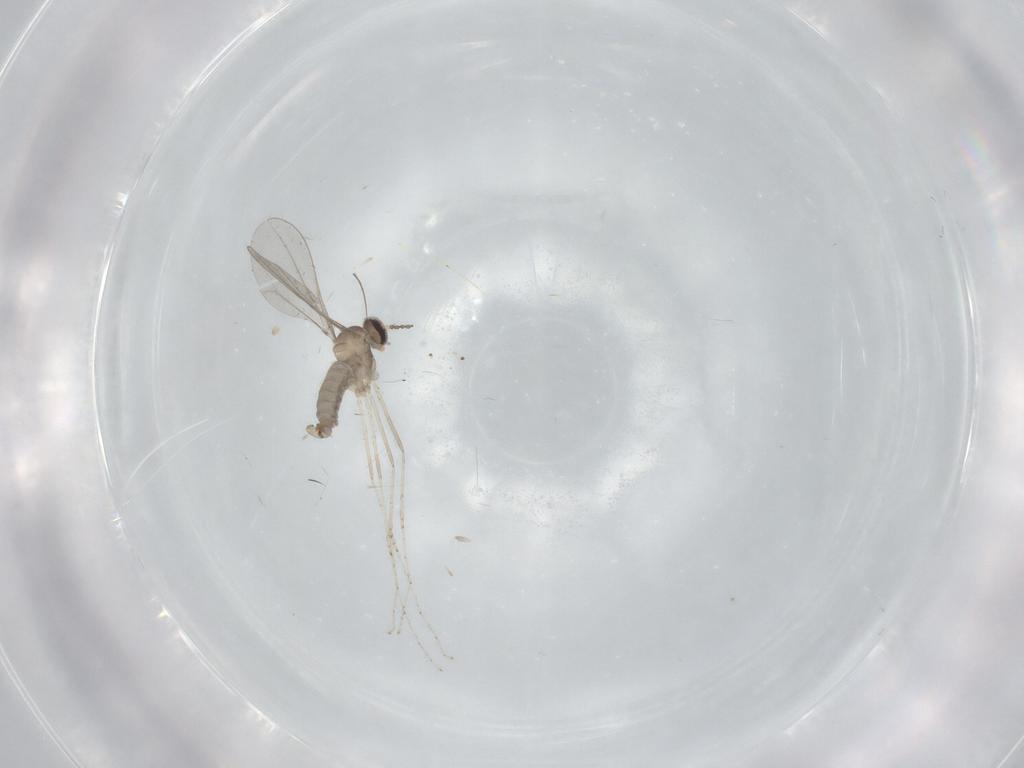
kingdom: Animalia
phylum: Arthropoda
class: Insecta
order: Diptera
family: Cecidomyiidae
